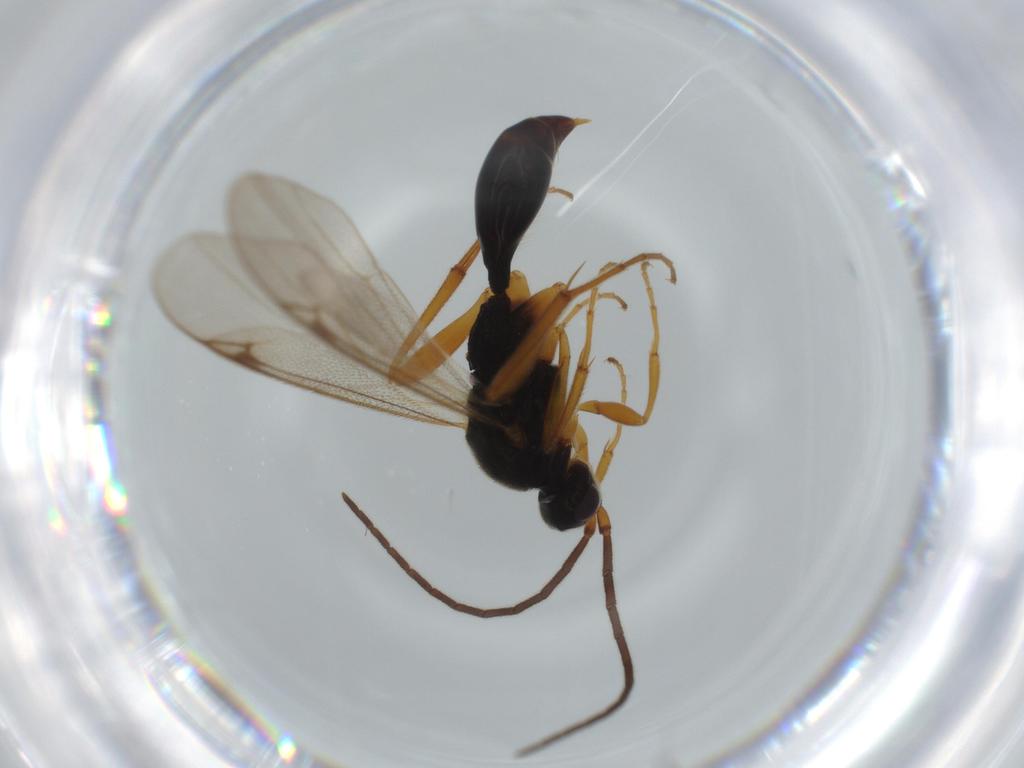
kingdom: Animalia
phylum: Arthropoda
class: Insecta
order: Hymenoptera
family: Proctotrupidae
